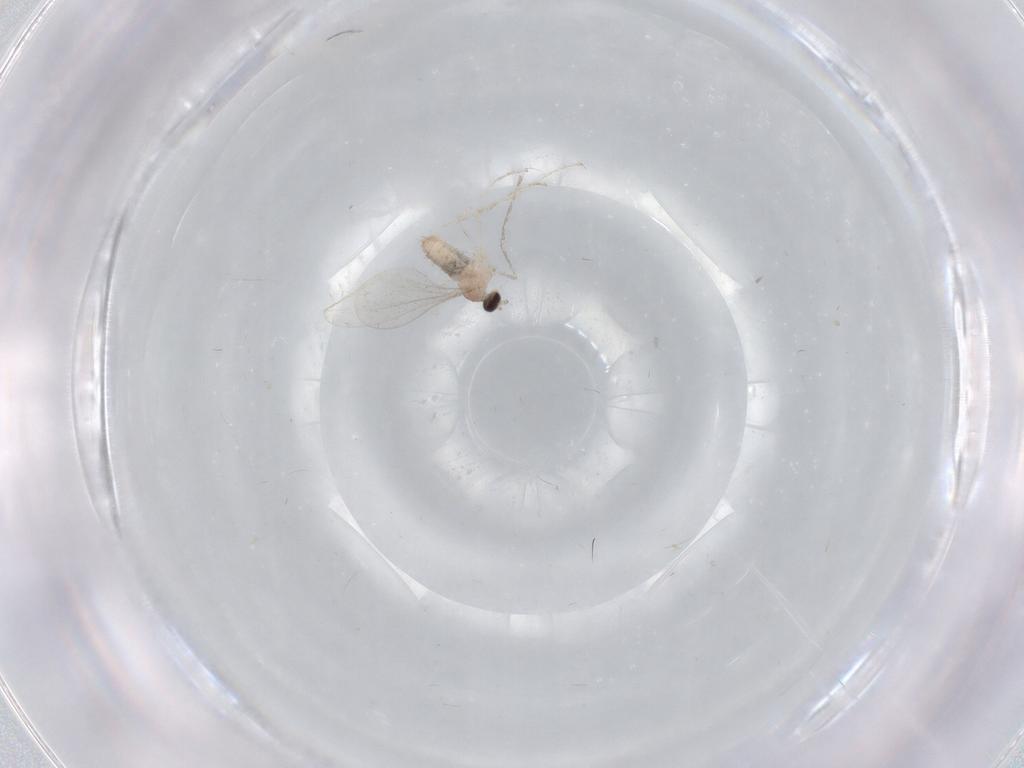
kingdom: Animalia
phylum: Arthropoda
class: Insecta
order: Diptera
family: Cecidomyiidae
